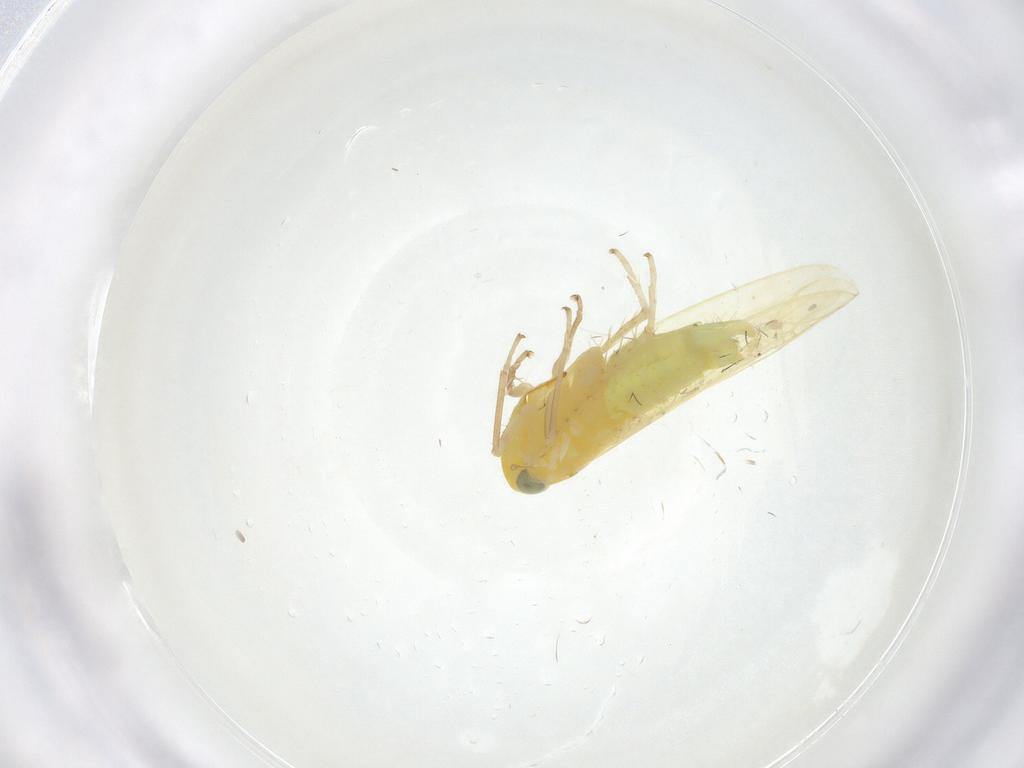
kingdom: Animalia
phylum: Arthropoda
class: Insecta
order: Hemiptera
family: Cicadellidae
